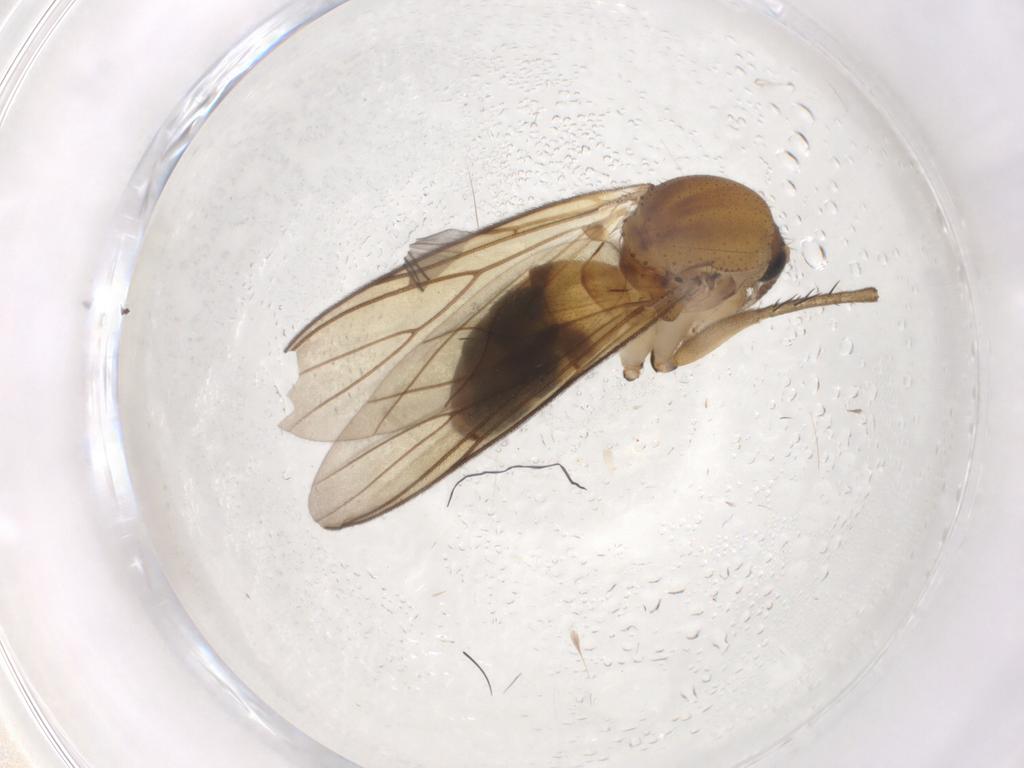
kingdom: Animalia
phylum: Arthropoda
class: Insecta
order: Diptera
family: Mycetophilidae
